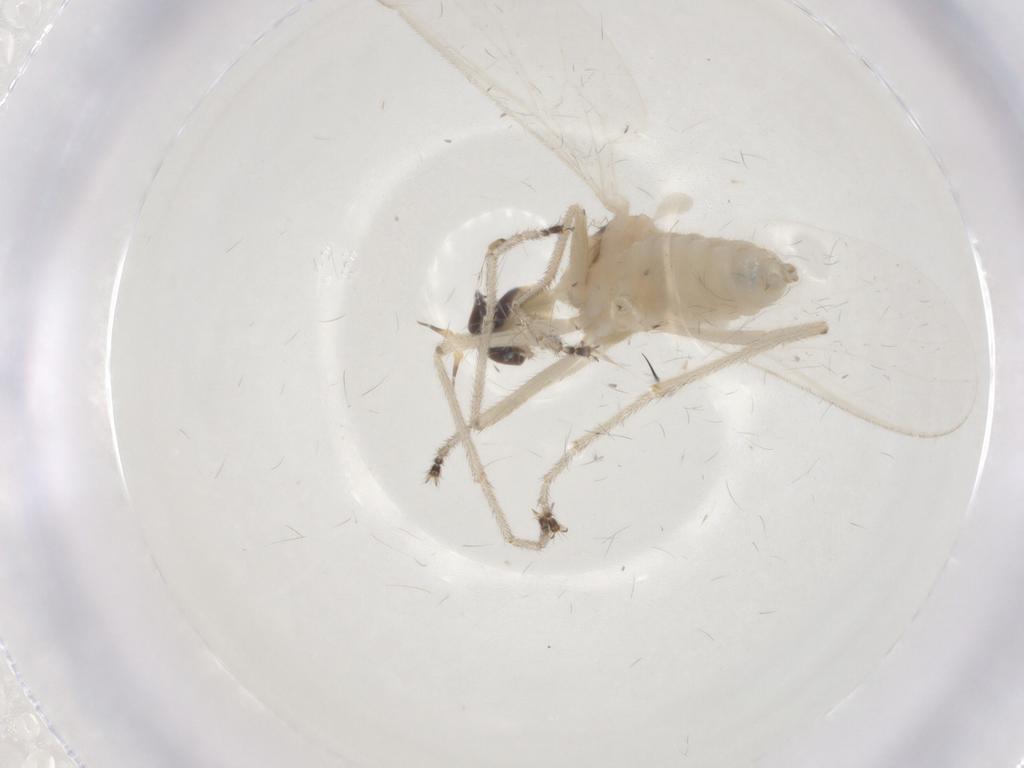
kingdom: Animalia
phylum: Arthropoda
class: Insecta
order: Diptera
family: Empididae
